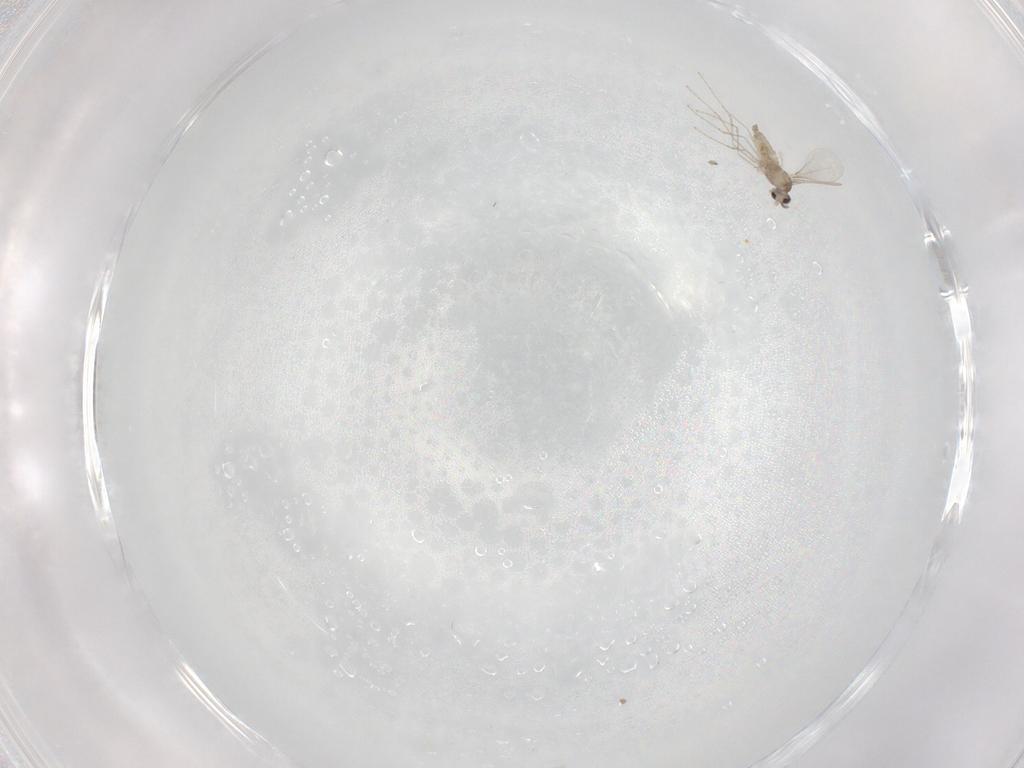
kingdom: Animalia
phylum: Arthropoda
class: Insecta
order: Diptera
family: Cecidomyiidae
